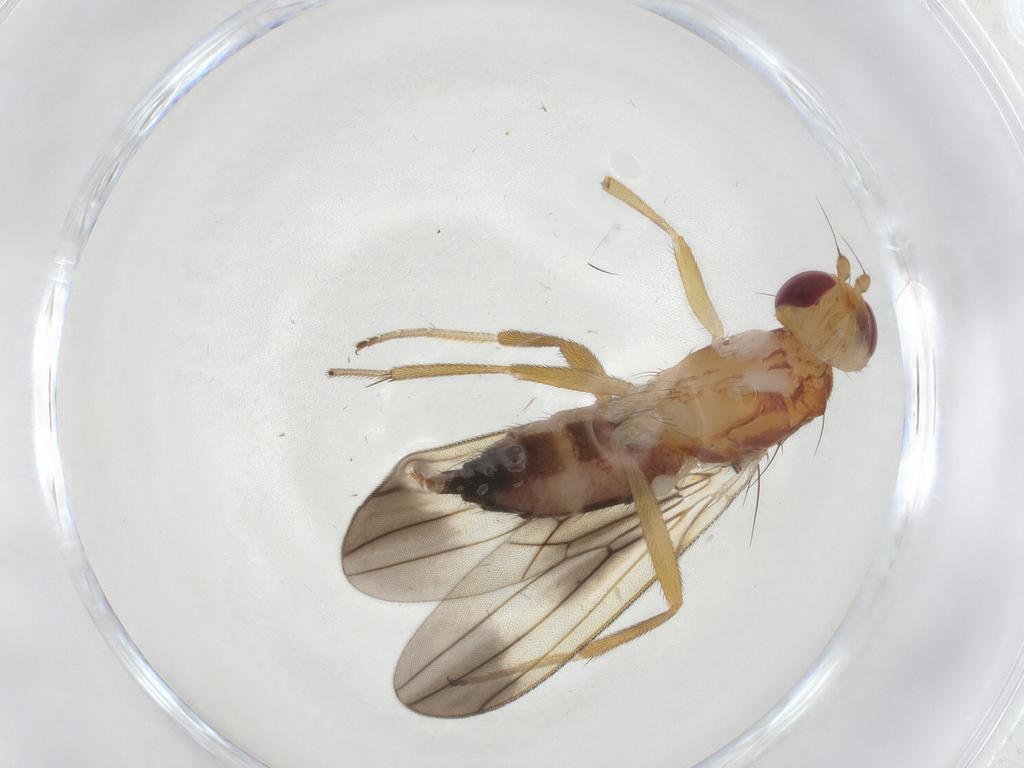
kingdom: Animalia
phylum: Arthropoda
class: Insecta
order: Diptera
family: Clusiidae
